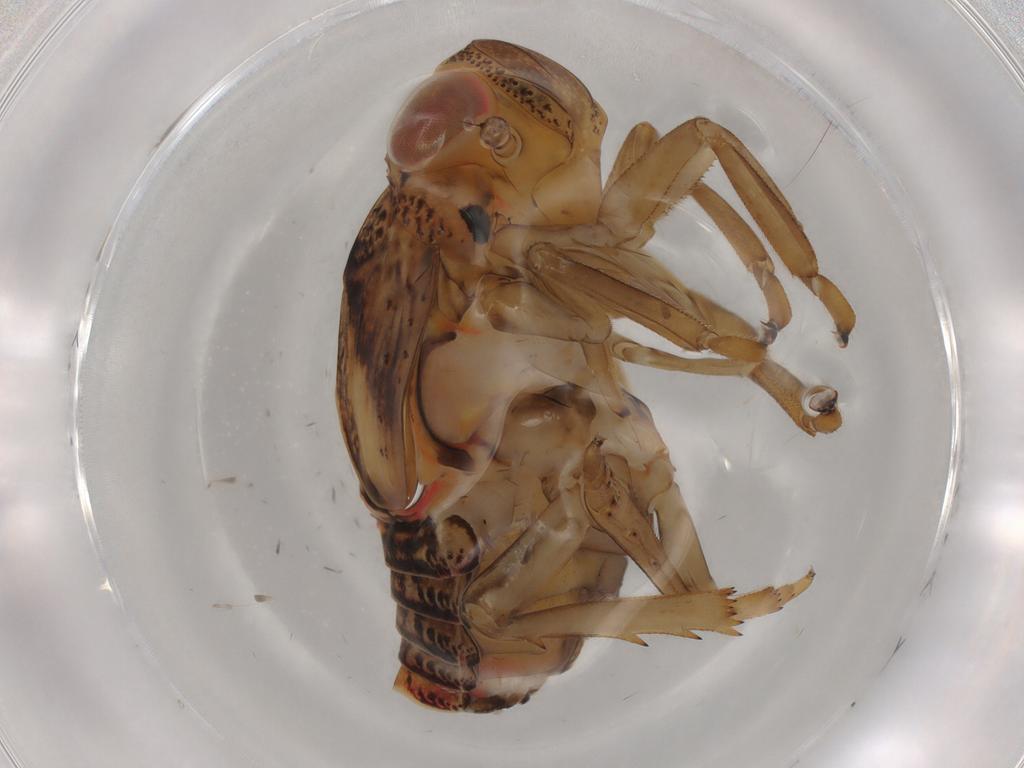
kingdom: Animalia
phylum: Arthropoda
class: Insecta
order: Hemiptera
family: Issidae
